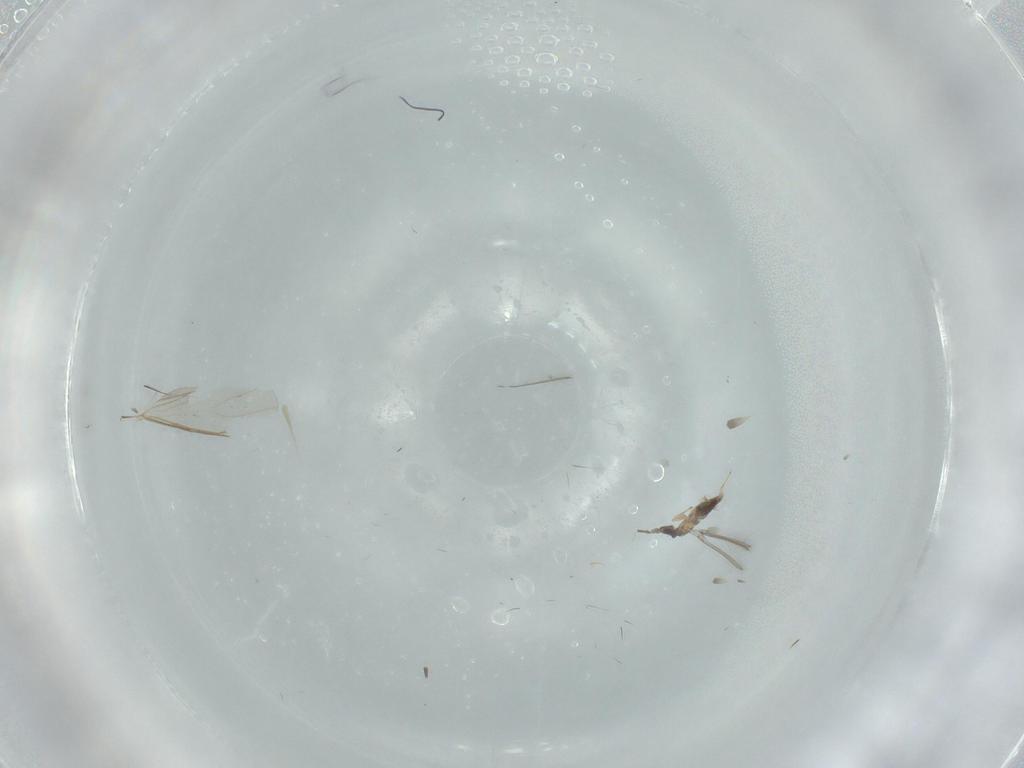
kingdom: Animalia
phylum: Arthropoda
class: Insecta
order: Hymenoptera
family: Mymaridae
